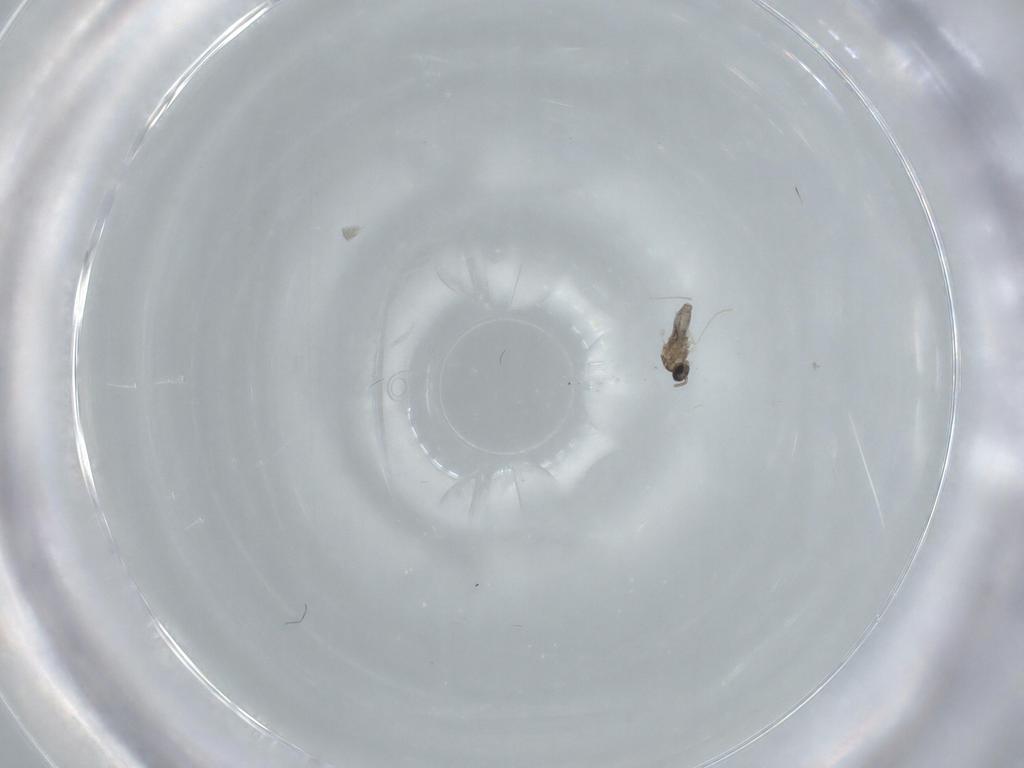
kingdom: Animalia
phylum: Arthropoda
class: Insecta
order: Diptera
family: Cecidomyiidae
